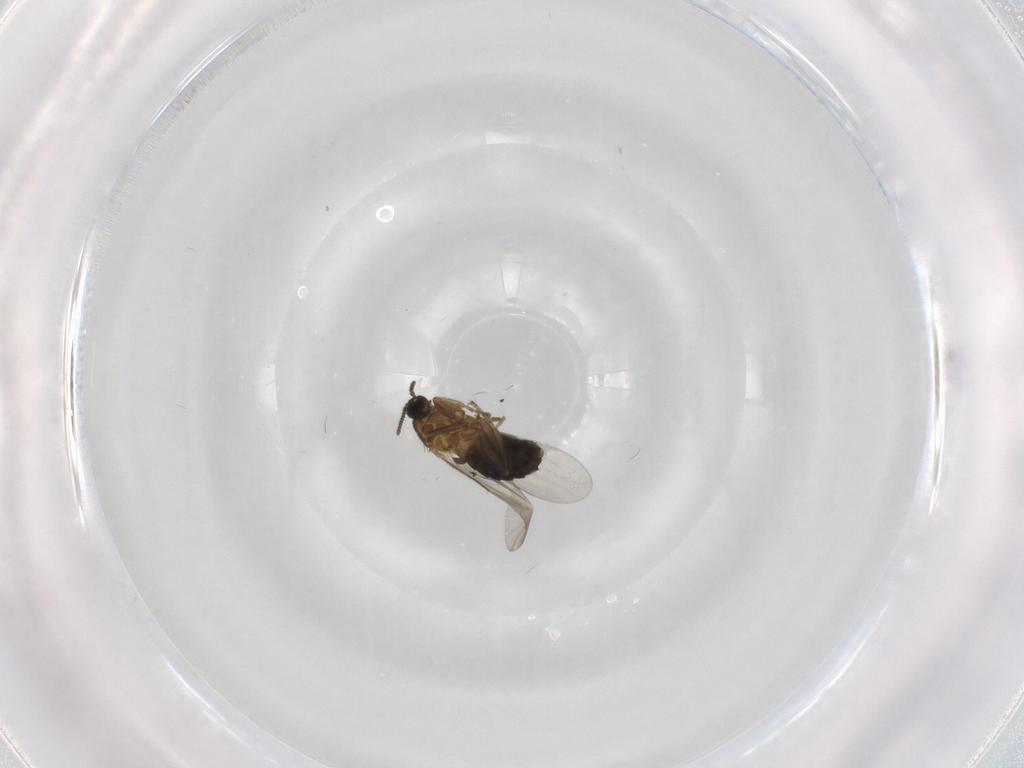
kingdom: Animalia
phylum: Arthropoda
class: Insecta
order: Diptera
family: Scatopsidae
